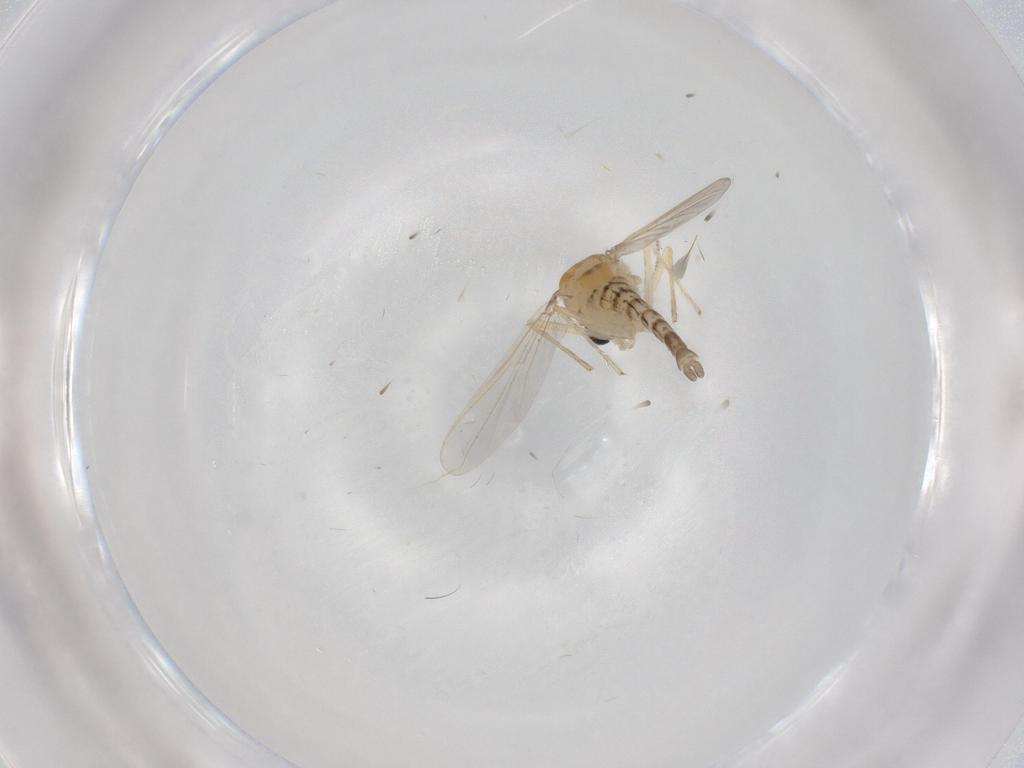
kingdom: Animalia
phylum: Arthropoda
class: Insecta
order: Diptera
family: Chironomidae
